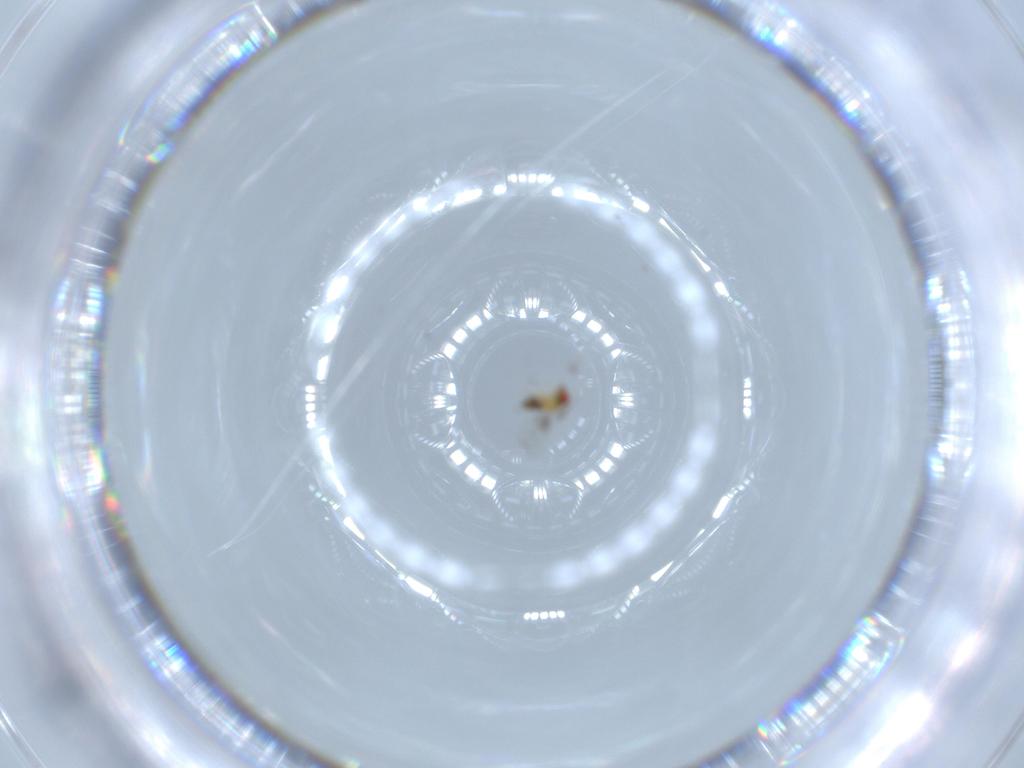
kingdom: Animalia
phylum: Arthropoda
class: Insecta
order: Hymenoptera
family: Trichogrammatidae
